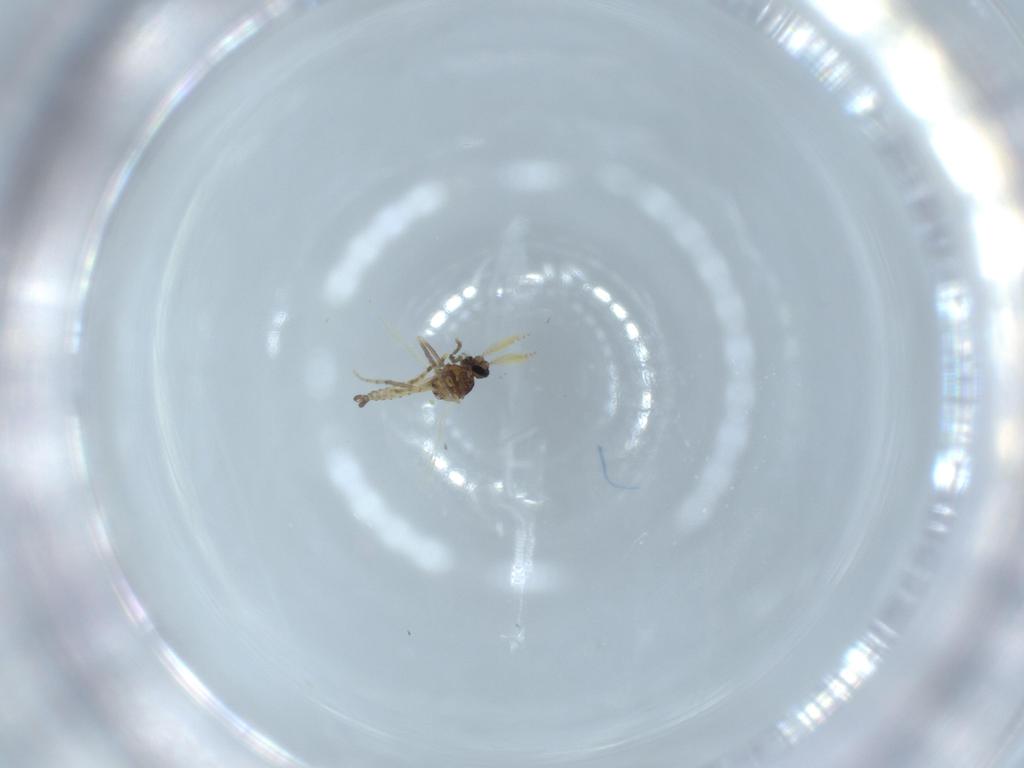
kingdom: Animalia
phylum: Arthropoda
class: Insecta
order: Diptera
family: Ceratopogonidae
